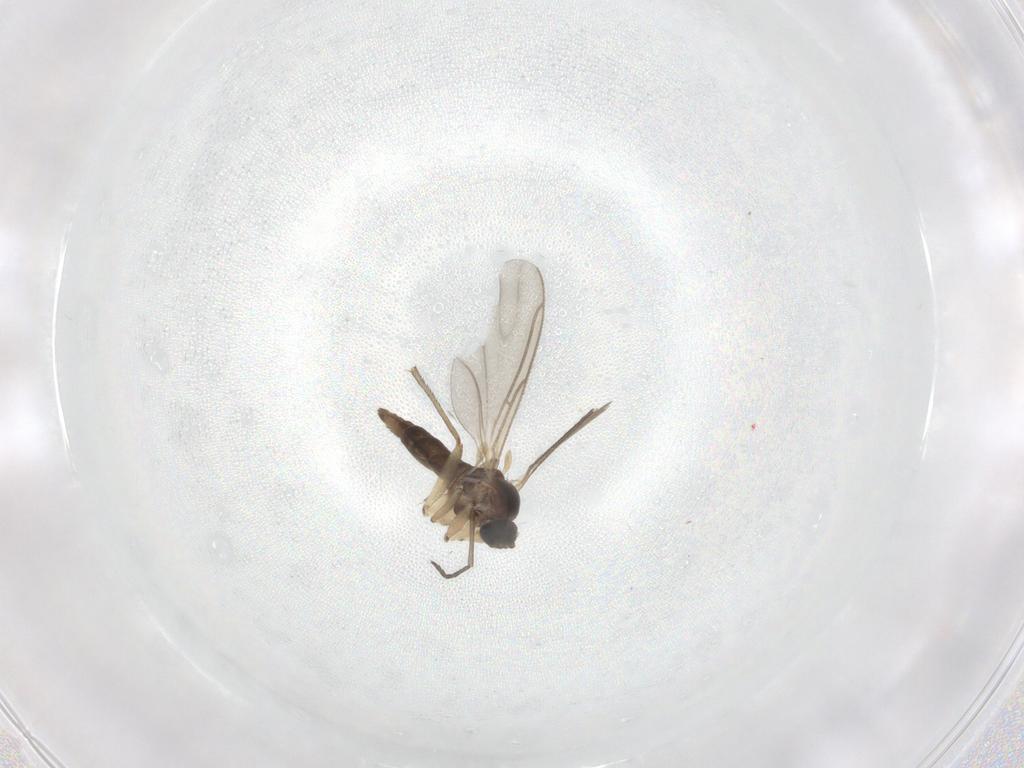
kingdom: Animalia
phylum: Arthropoda
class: Insecta
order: Diptera
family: Sciaridae
